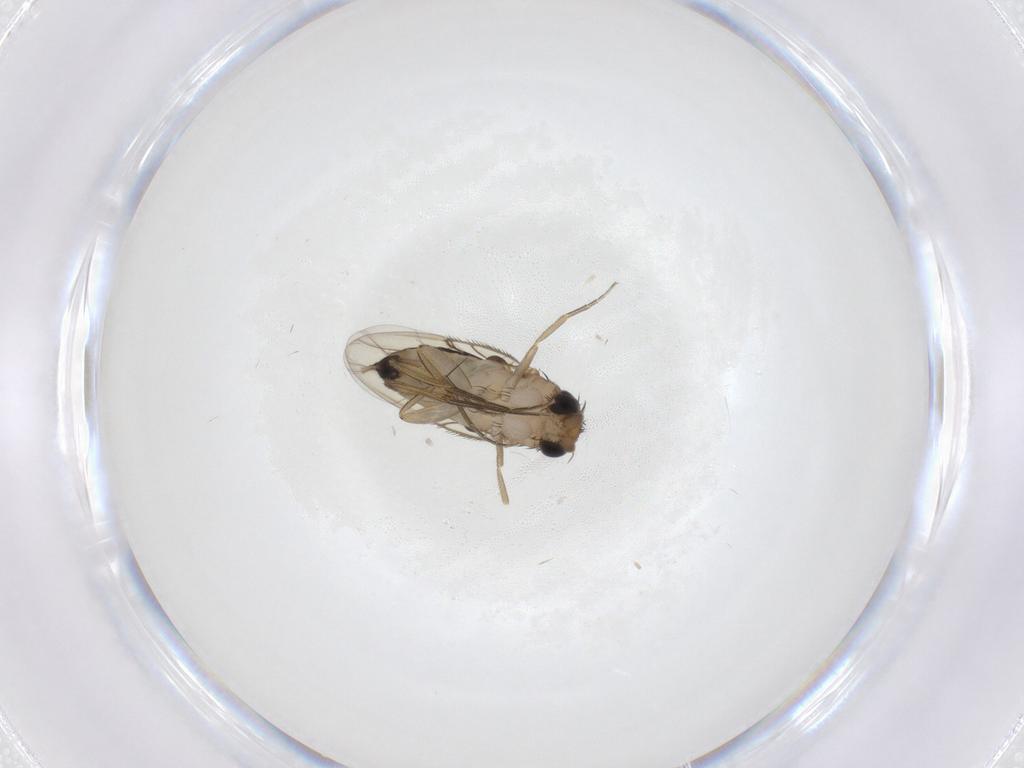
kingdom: Animalia
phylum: Arthropoda
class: Insecta
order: Diptera
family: Phoridae
